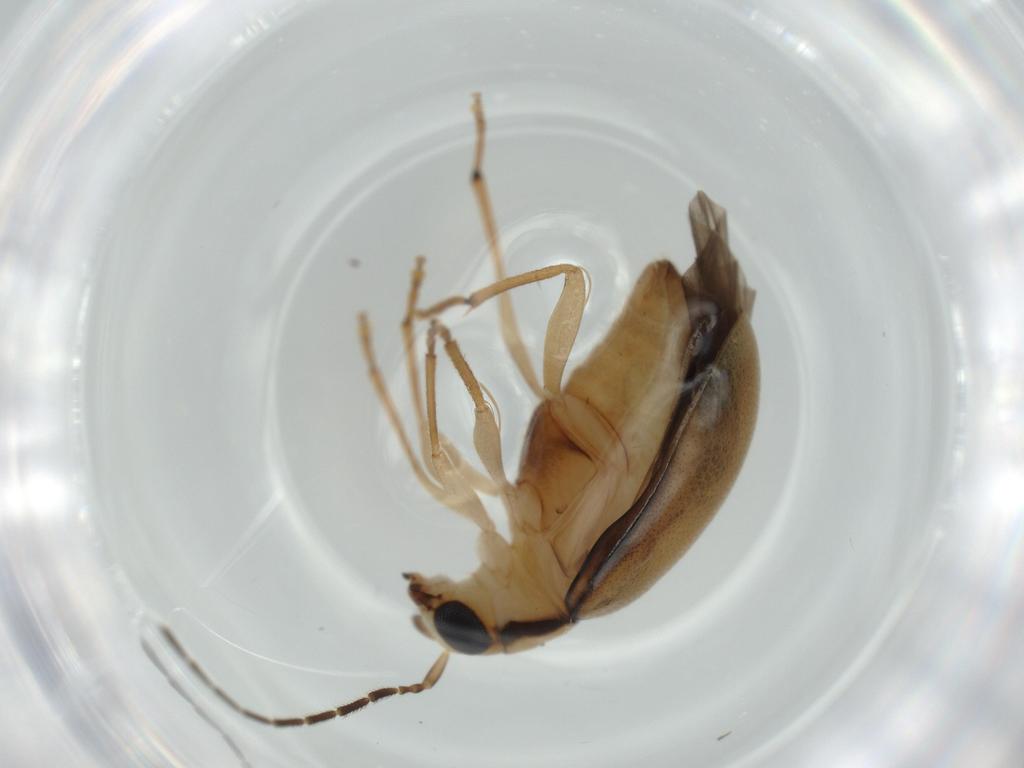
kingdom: Animalia
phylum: Arthropoda
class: Insecta
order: Coleoptera
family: Chrysomelidae
